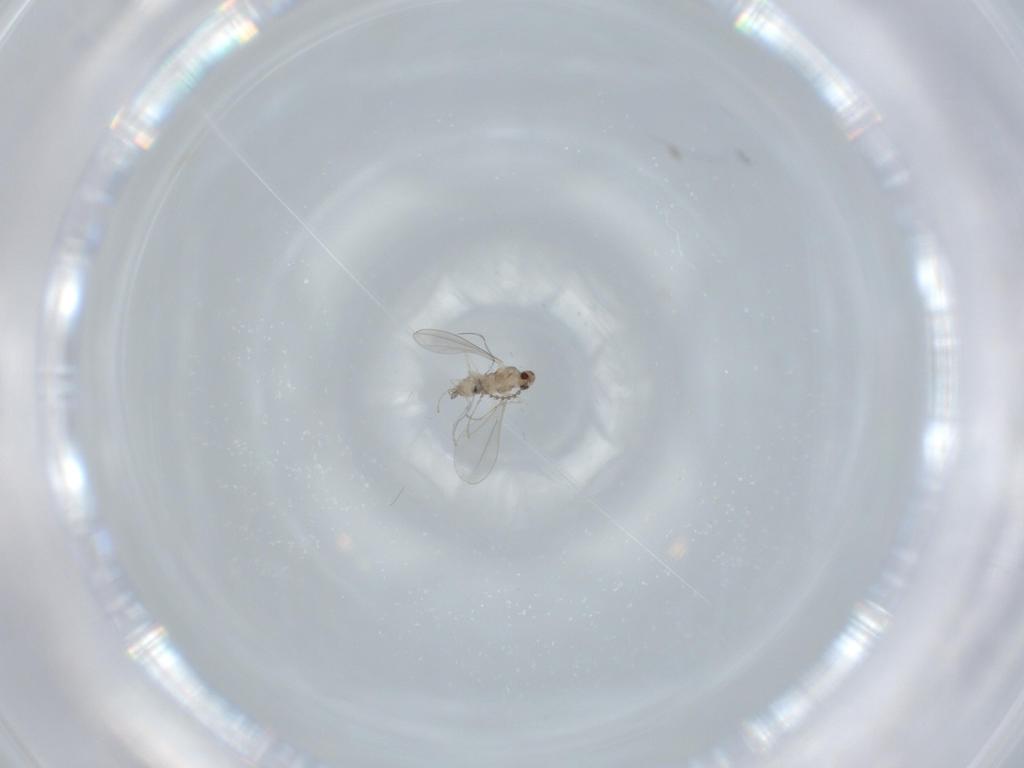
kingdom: Animalia
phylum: Arthropoda
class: Insecta
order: Diptera
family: Cecidomyiidae
